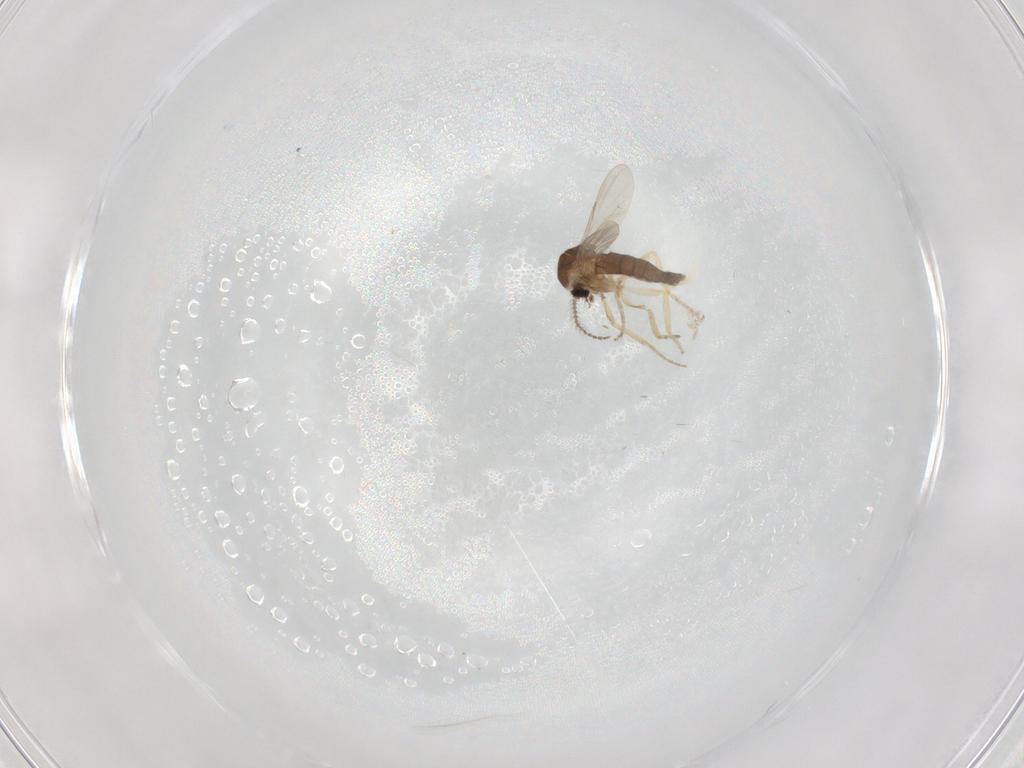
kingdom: Animalia
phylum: Arthropoda
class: Insecta
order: Diptera
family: Ceratopogonidae
